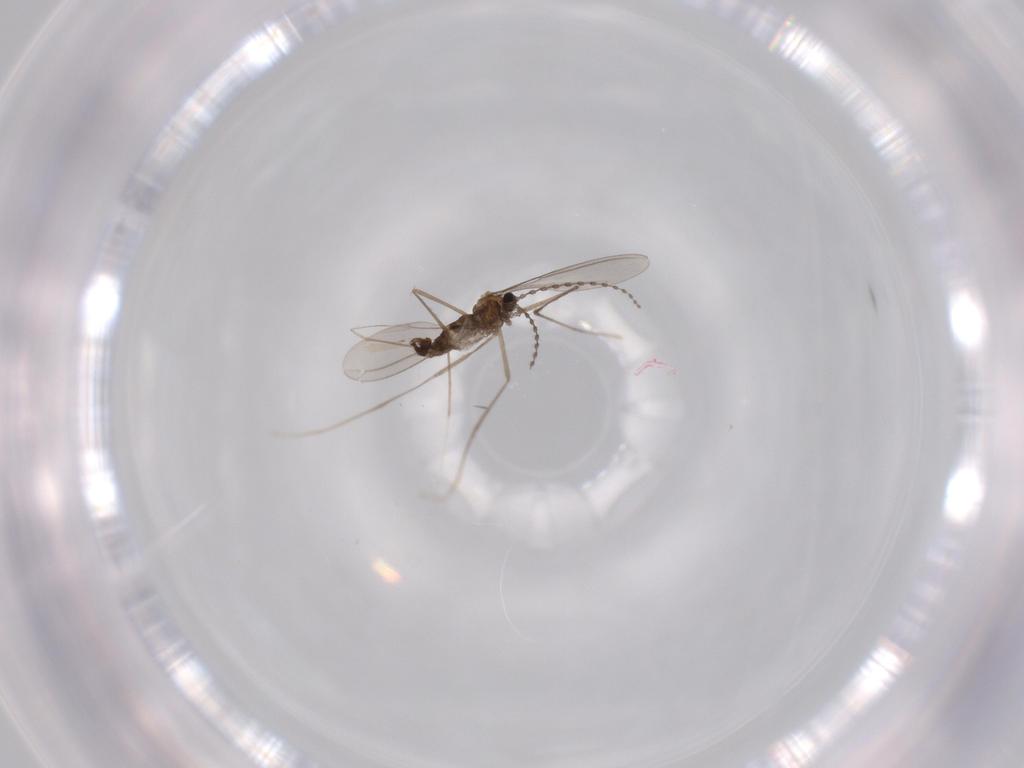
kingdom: Animalia
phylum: Arthropoda
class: Insecta
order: Diptera
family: Cecidomyiidae
